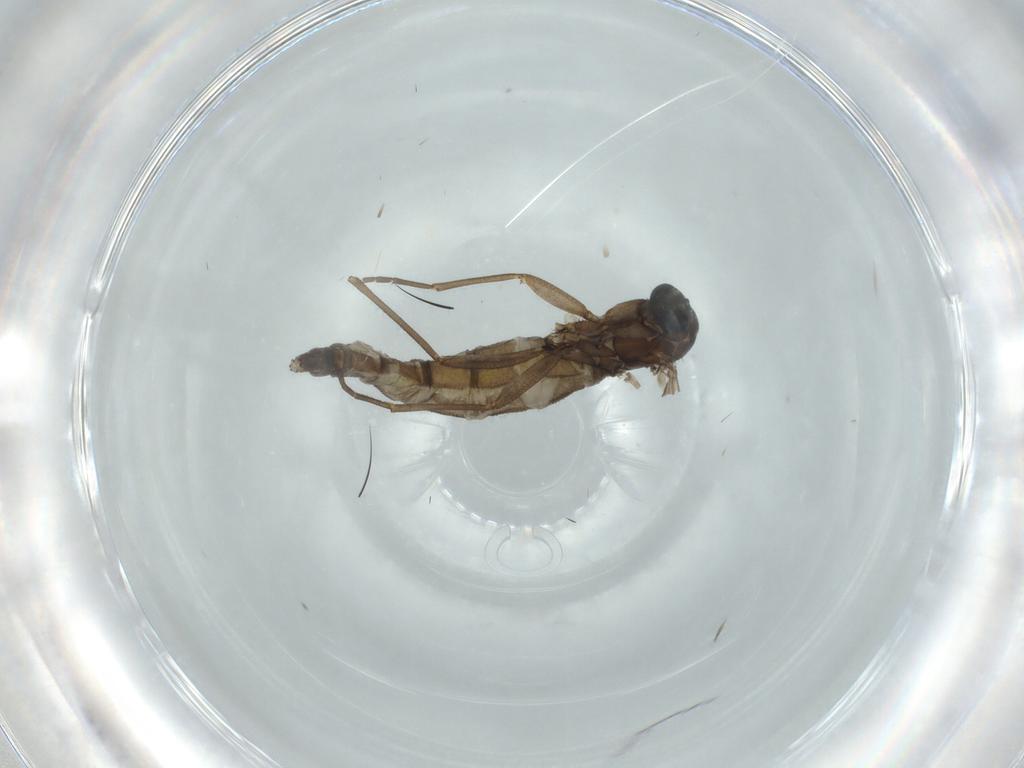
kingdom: Animalia
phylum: Arthropoda
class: Insecta
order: Diptera
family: Sciaridae
